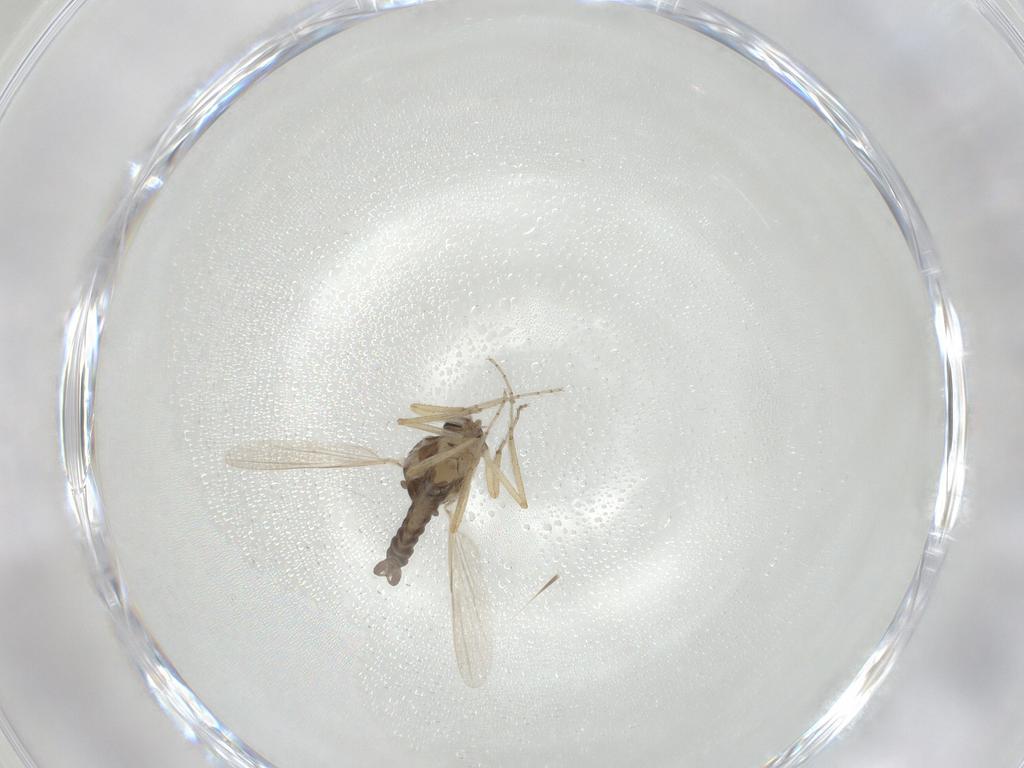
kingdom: Animalia
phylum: Arthropoda
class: Insecta
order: Diptera
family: Ceratopogonidae
